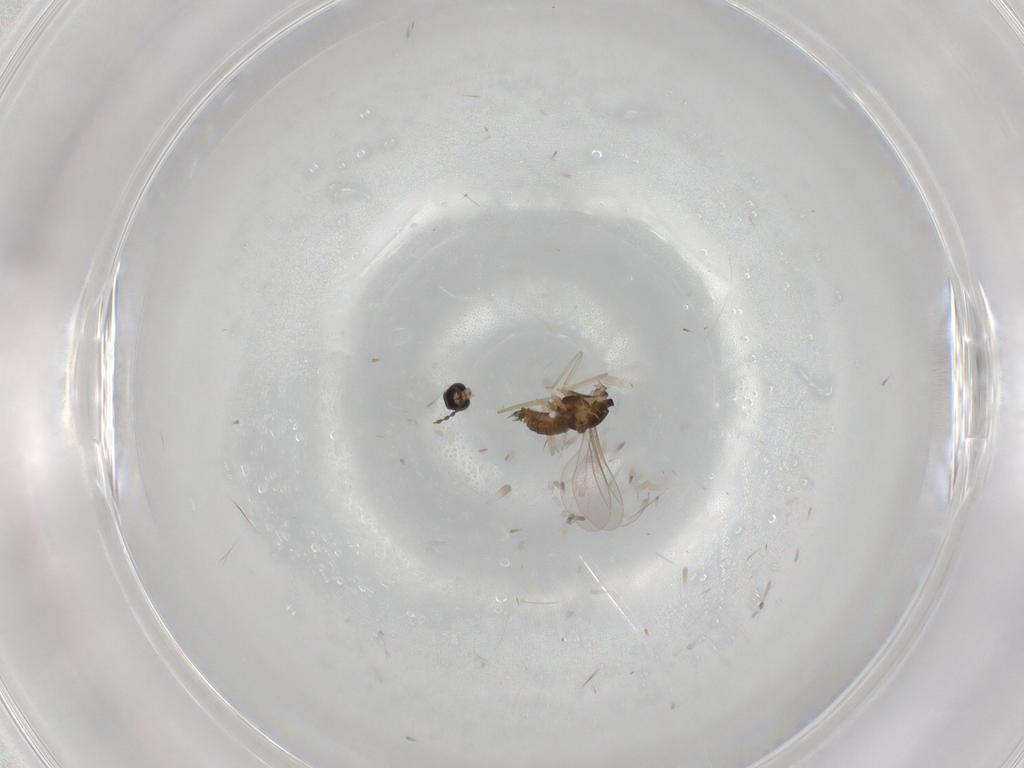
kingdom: Animalia
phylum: Arthropoda
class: Insecta
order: Diptera
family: Cecidomyiidae
